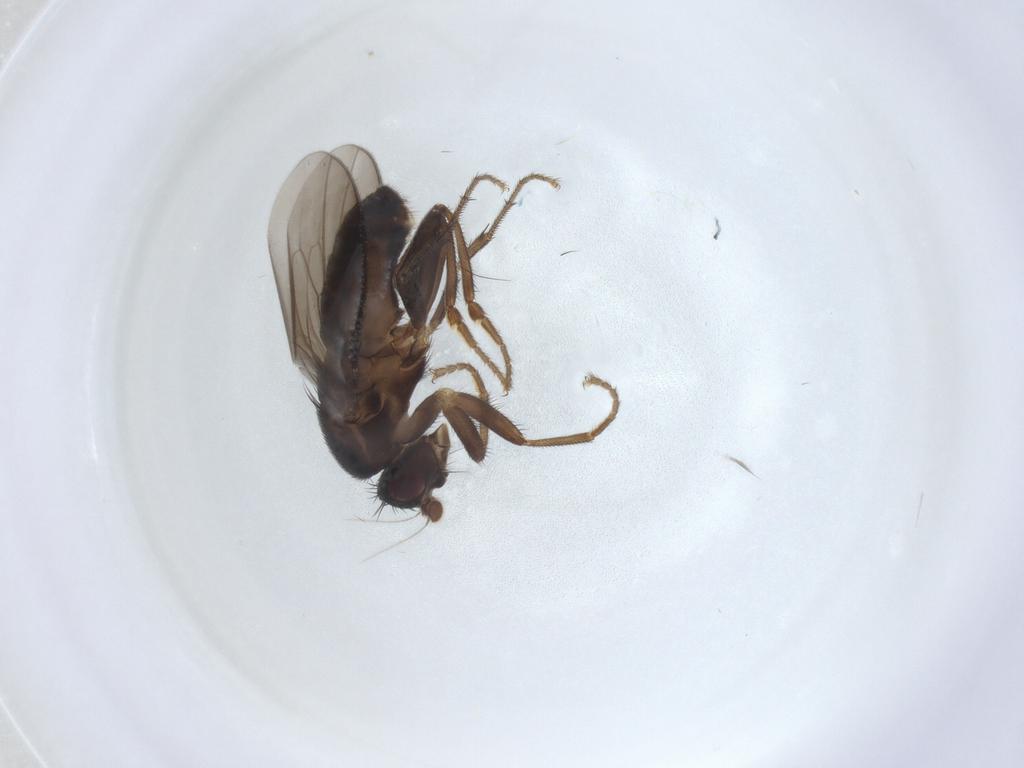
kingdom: Animalia
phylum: Arthropoda
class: Insecta
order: Diptera
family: Sphaeroceridae
